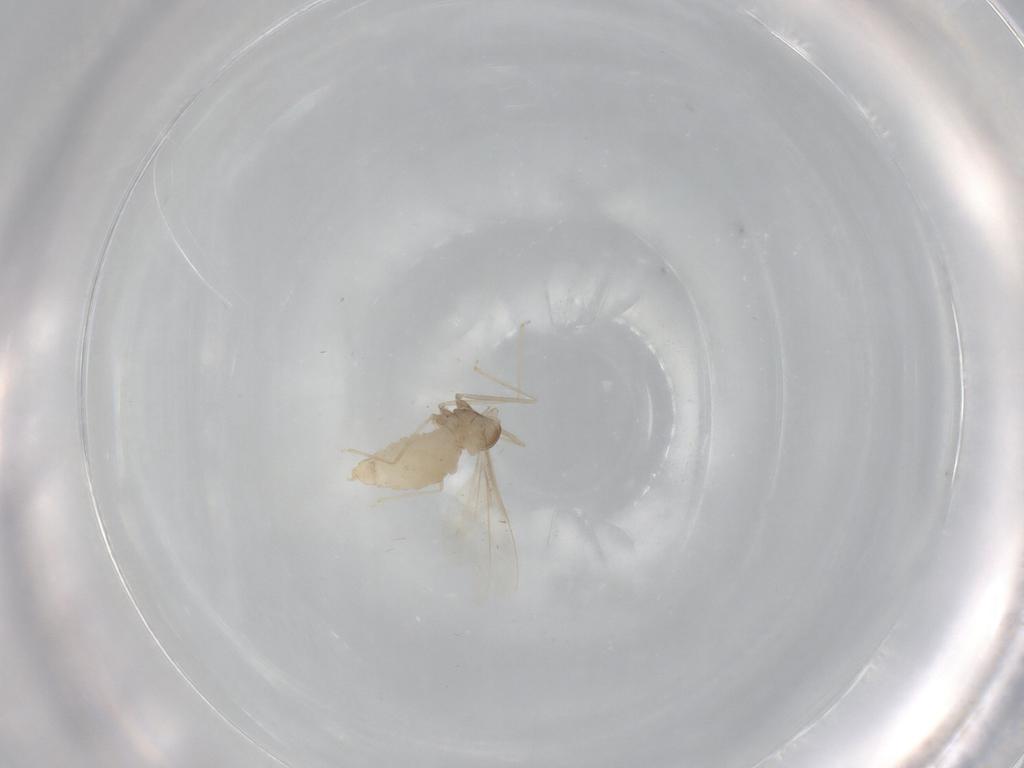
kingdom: Animalia
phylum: Arthropoda
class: Insecta
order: Diptera
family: Cecidomyiidae
